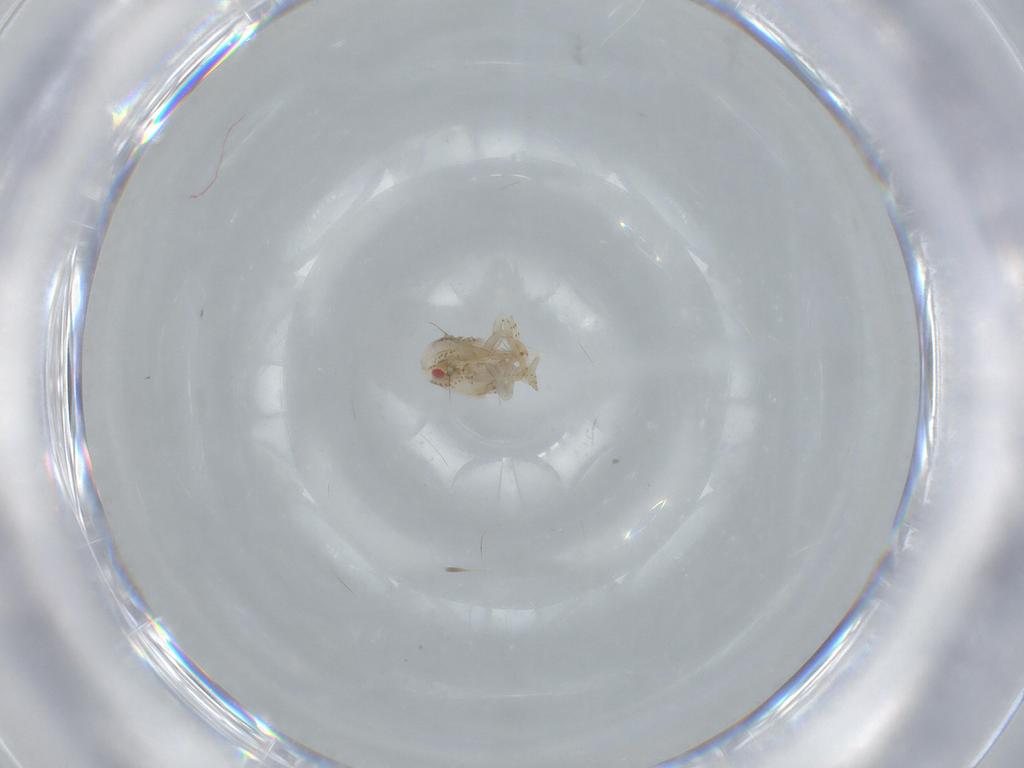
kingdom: Animalia
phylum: Arthropoda
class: Insecta
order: Hemiptera
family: Acanaloniidae
